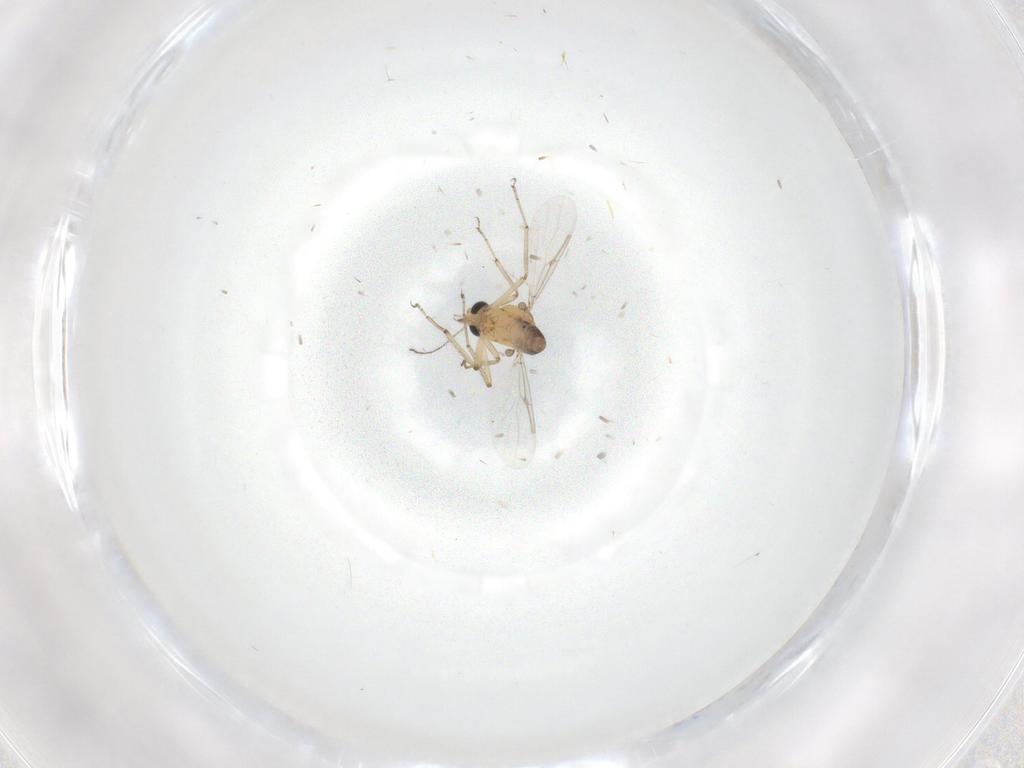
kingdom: Animalia
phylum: Arthropoda
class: Insecta
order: Diptera
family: Ceratopogonidae
